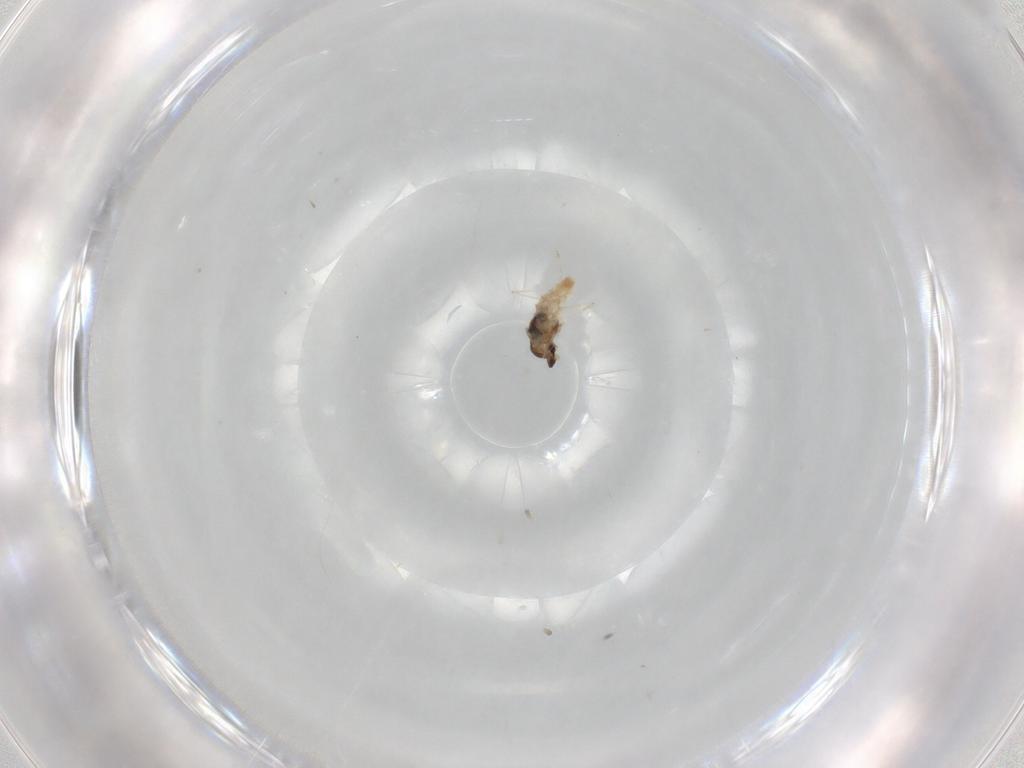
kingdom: Animalia
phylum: Arthropoda
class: Insecta
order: Diptera
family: Cecidomyiidae
